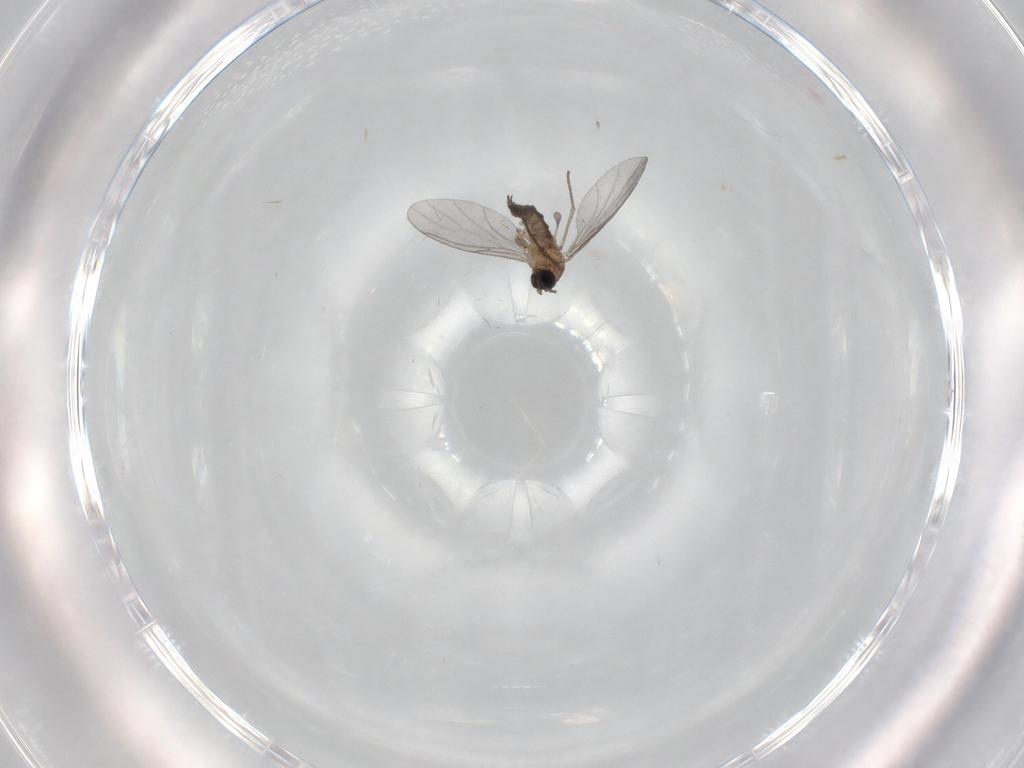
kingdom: Animalia
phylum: Arthropoda
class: Insecta
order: Diptera
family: Sciaridae
